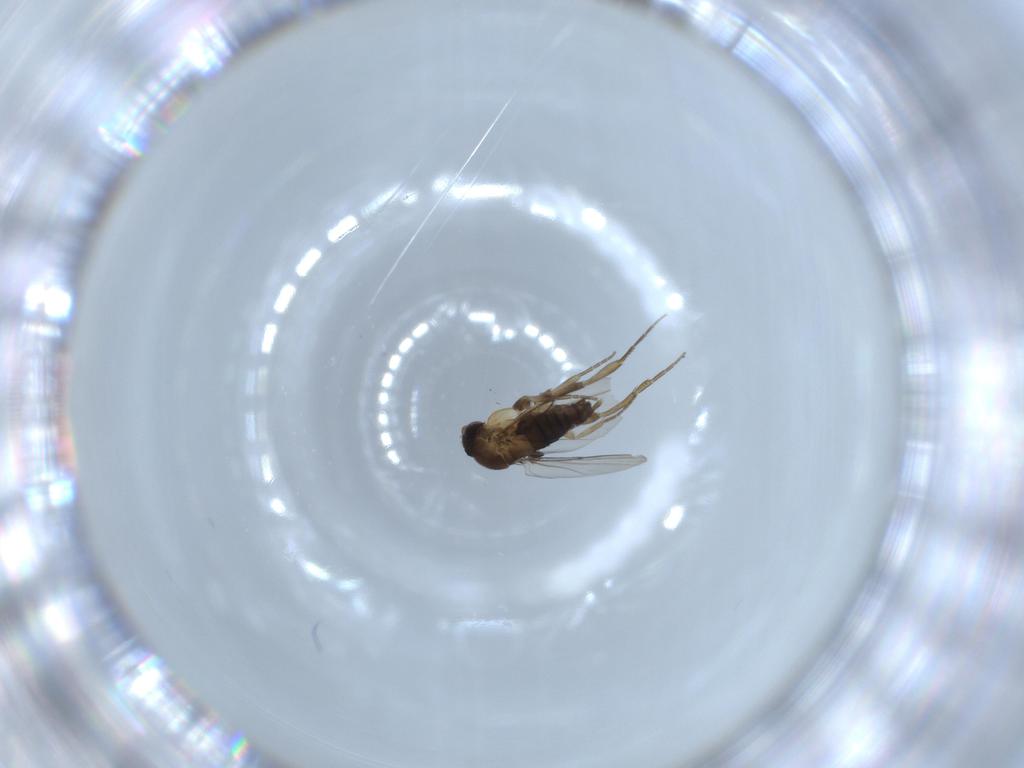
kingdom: Animalia
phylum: Arthropoda
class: Insecta
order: Diptera
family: Phoridae
